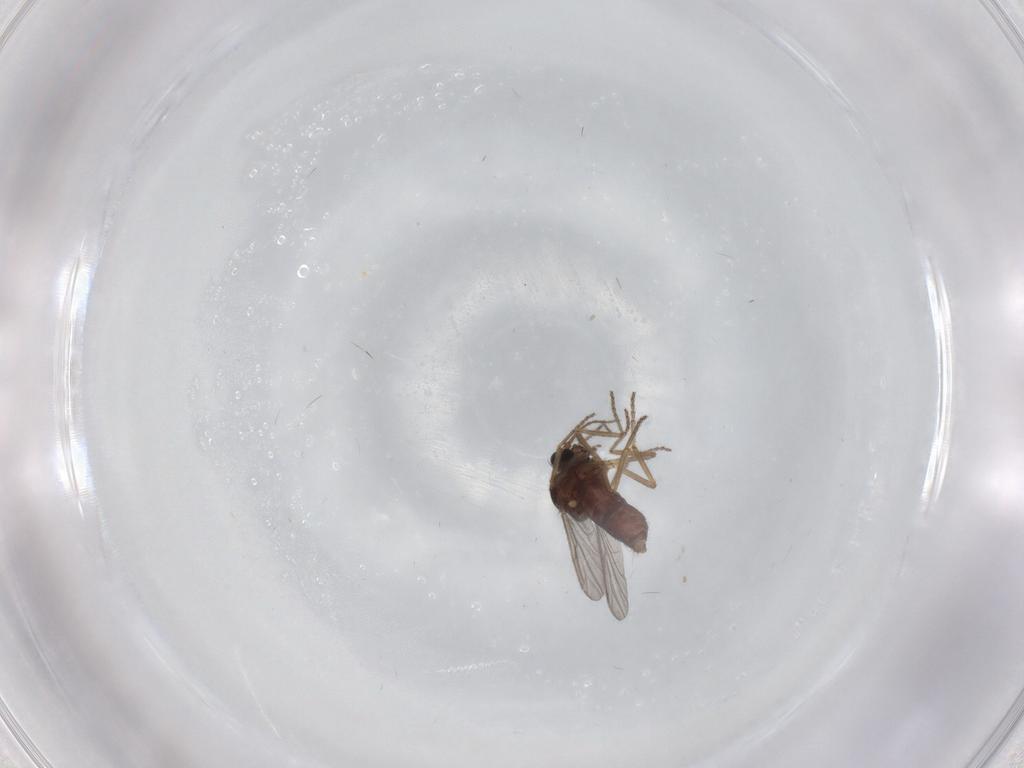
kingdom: Animalia
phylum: Arthropoda
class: Insecta
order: Diptera
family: Ceratopogonidae
